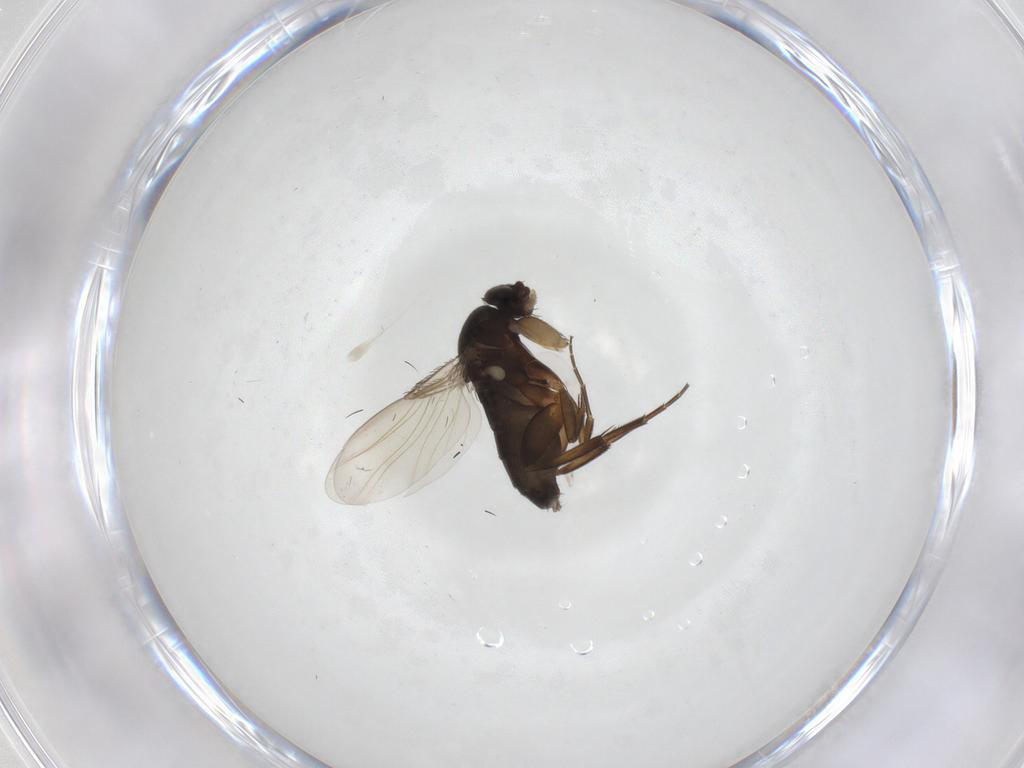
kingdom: Animalia
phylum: Arthropoda
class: Insecta
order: Diptera
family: Phoridae
